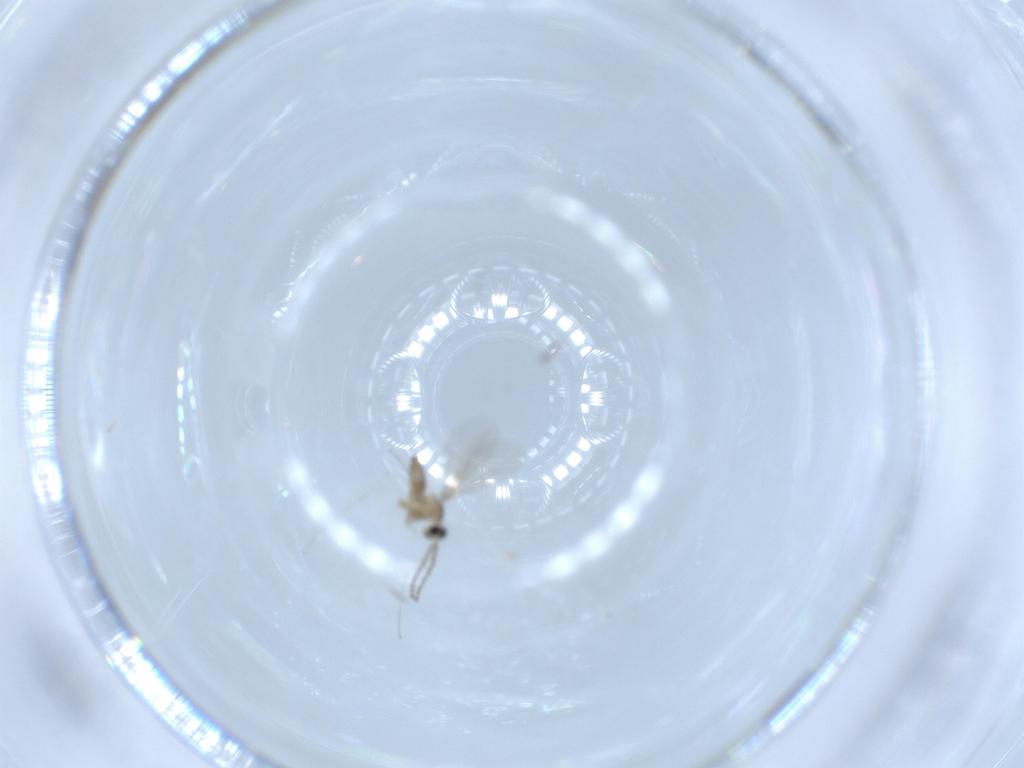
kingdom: Animalia
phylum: Arthropoda
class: Insecta
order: Diptera
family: Cecidomyiidae
